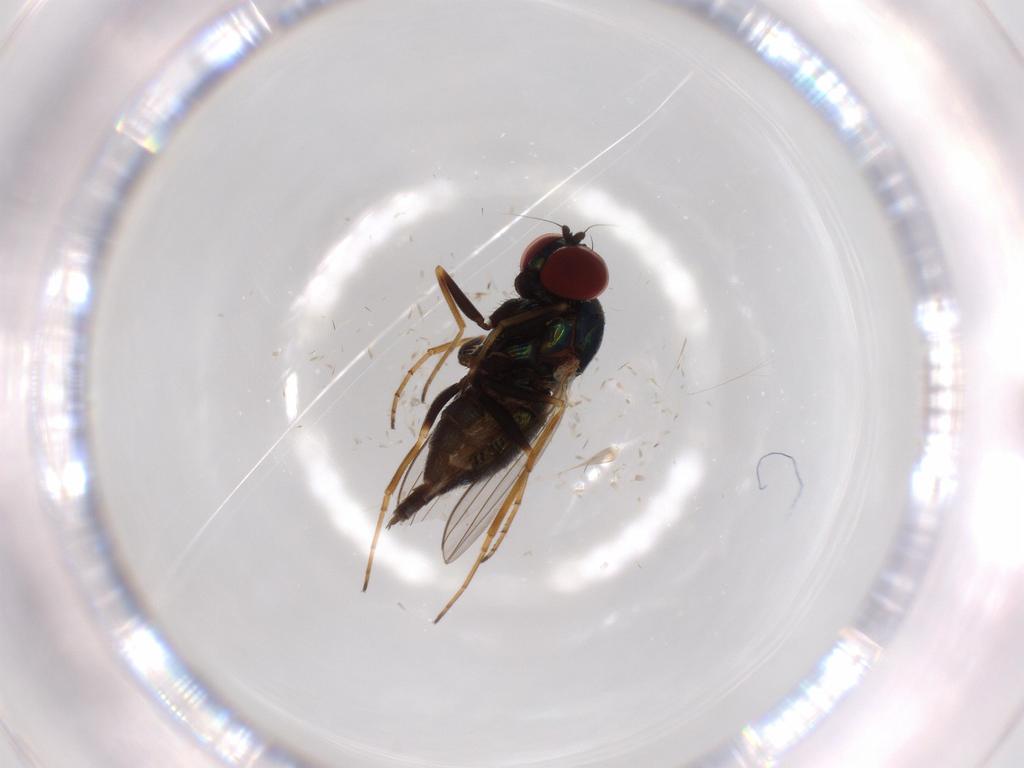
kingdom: Animalia
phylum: Arthropoda
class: Insecta
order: Diptera
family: Dolichopodidae
